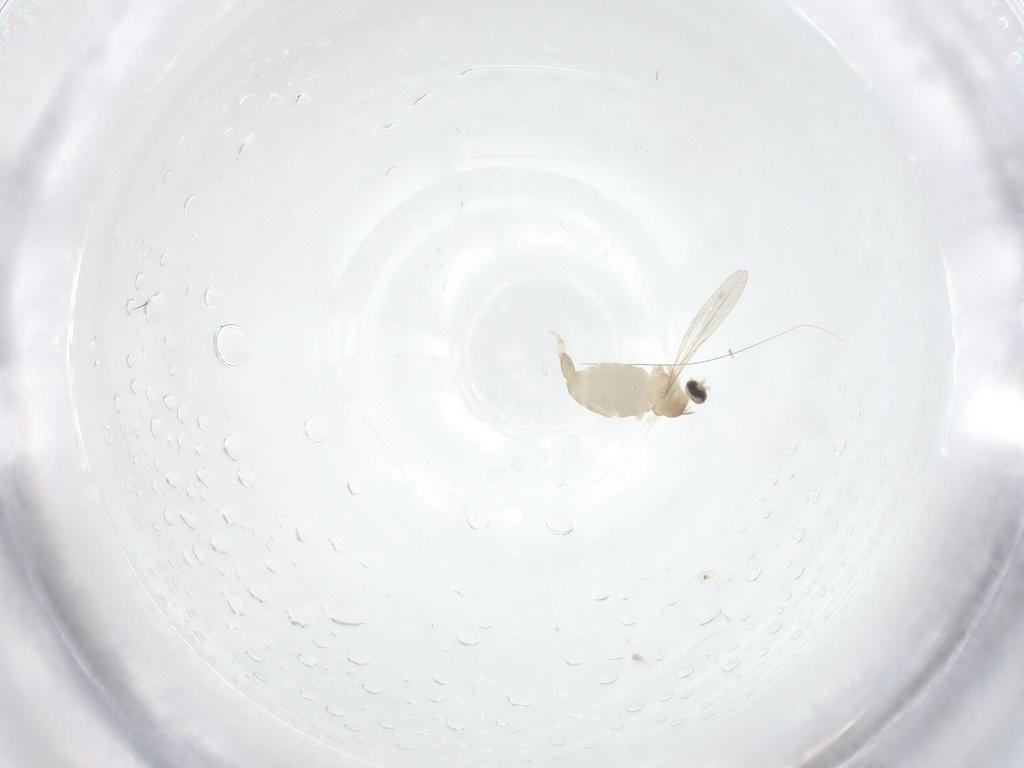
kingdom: Animalia
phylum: Arthropoda
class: Insecta
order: Diptera
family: Cecidomyiidae
